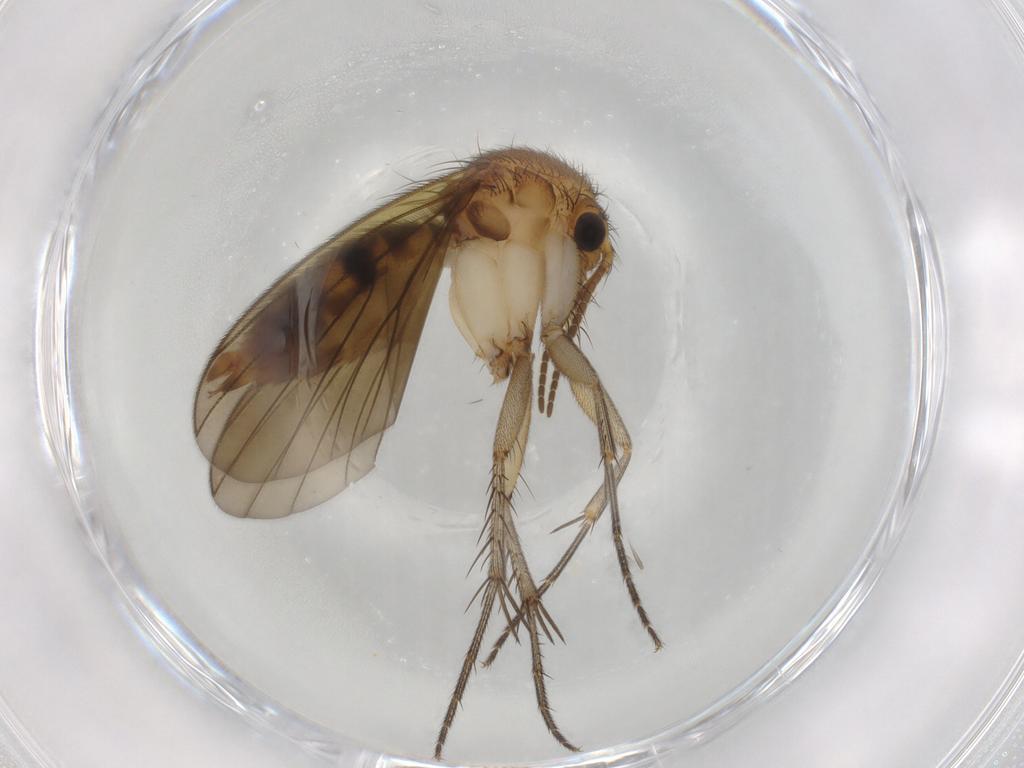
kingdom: Animalia
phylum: Arthropoda
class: Insecta
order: Diptera
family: Mycetophilidae
